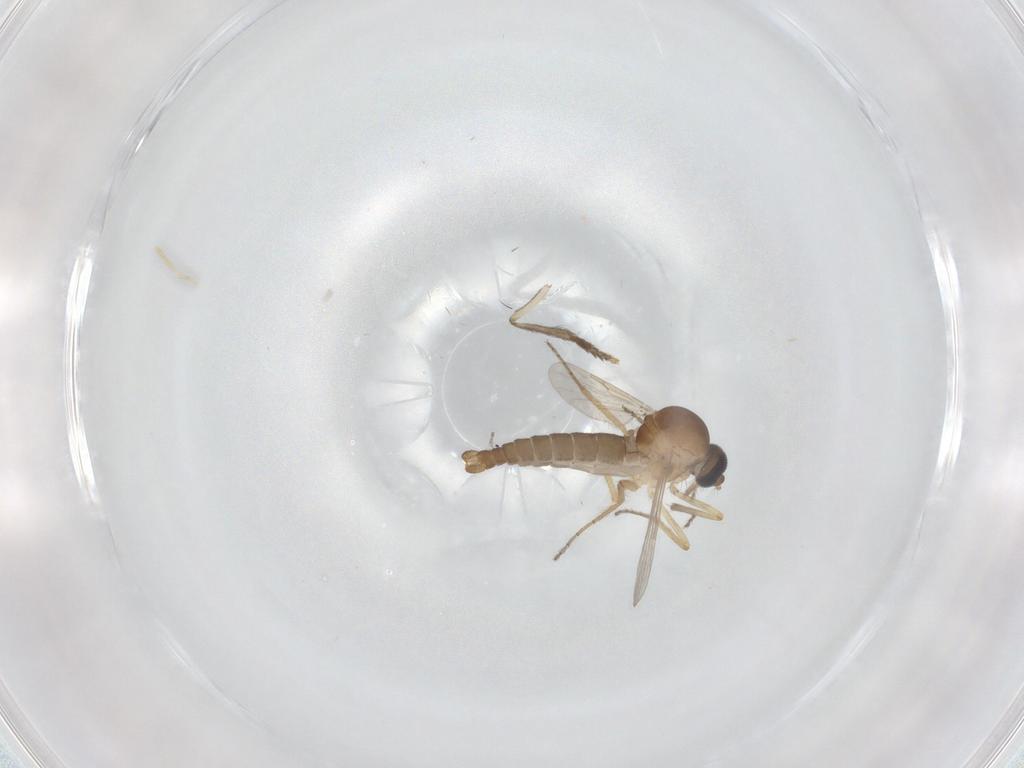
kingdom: Animalia
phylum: Arthropoda
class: Insecta
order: Diptera
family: Ceratopogonidae
